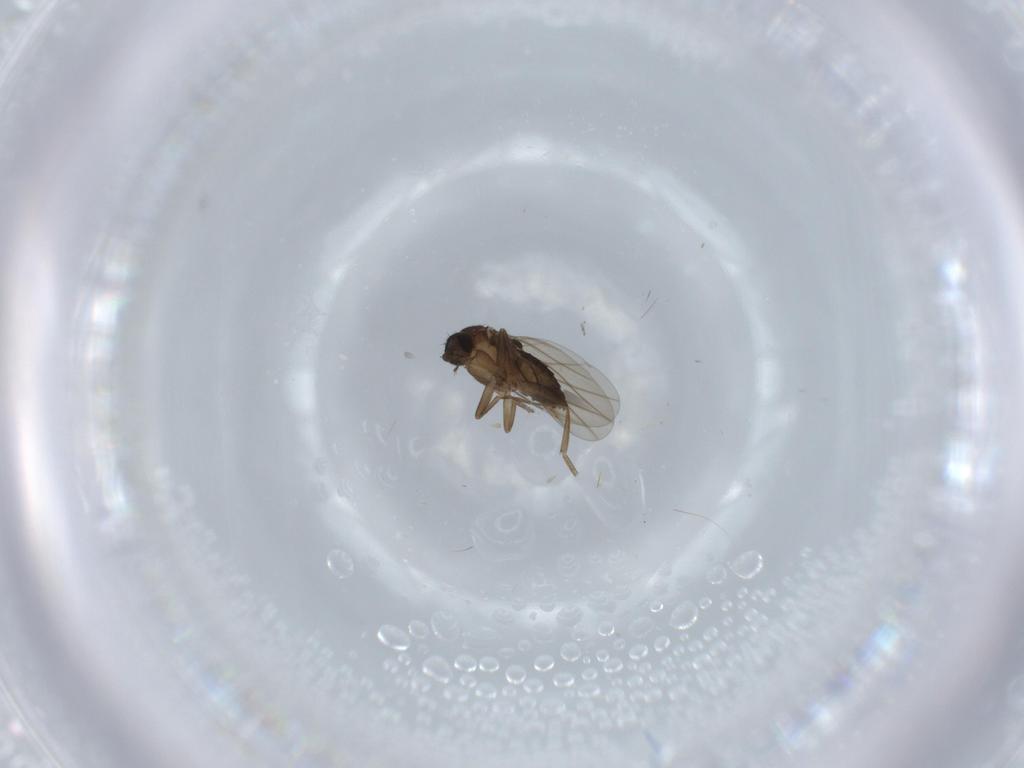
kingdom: Animalia
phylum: Arthropoda
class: Insecta
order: Diptera
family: Phoridae
